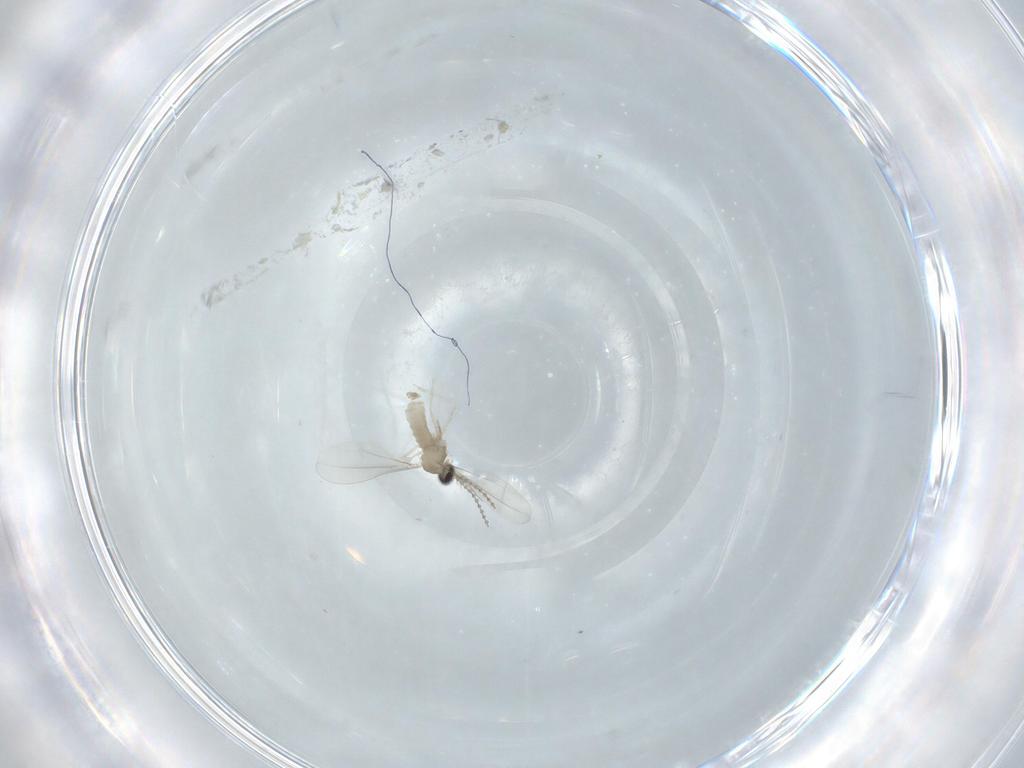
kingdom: Animalia
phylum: Arthropoda
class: Insecta
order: Diptera
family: Cecidomyiidae
